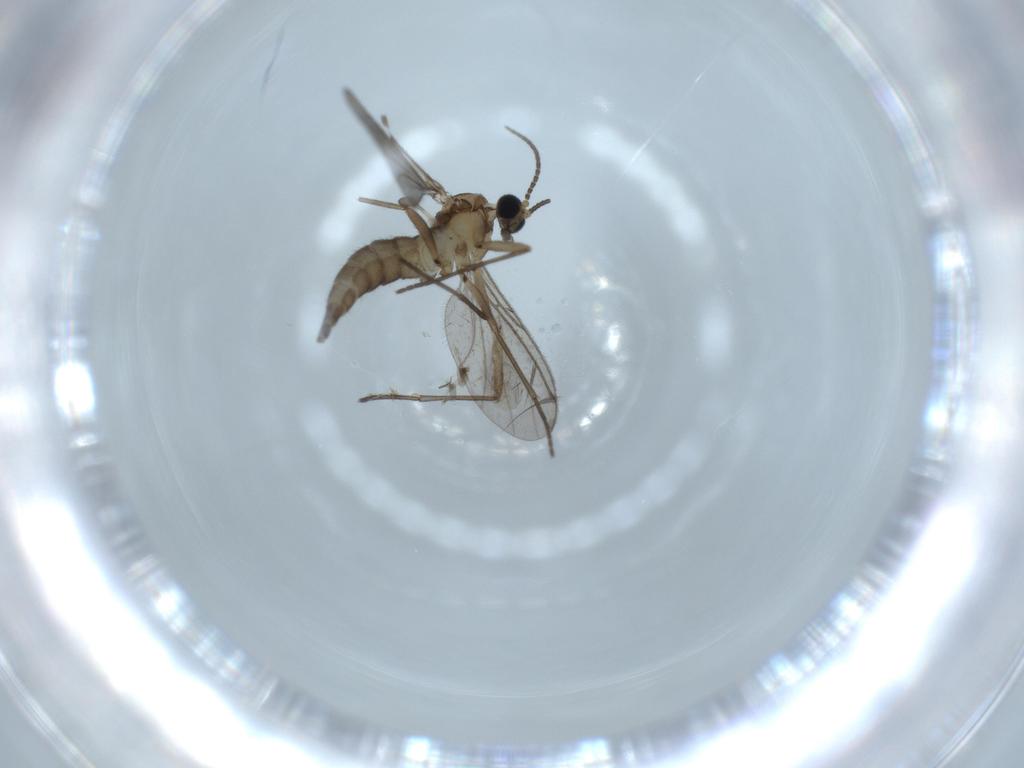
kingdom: Animalia
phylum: Arthropoda
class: Insecta
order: Diptera
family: Sciaridae
